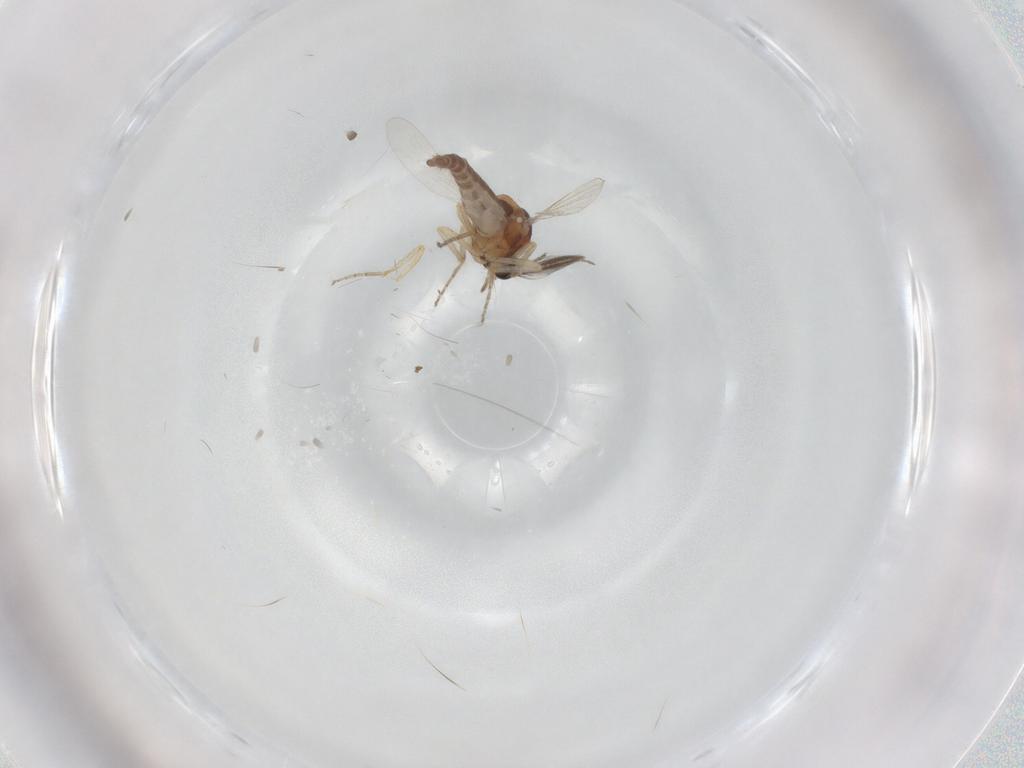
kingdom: Animalia
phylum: Arthropoda
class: Insecta
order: Diptera
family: Ceratopogonidae
